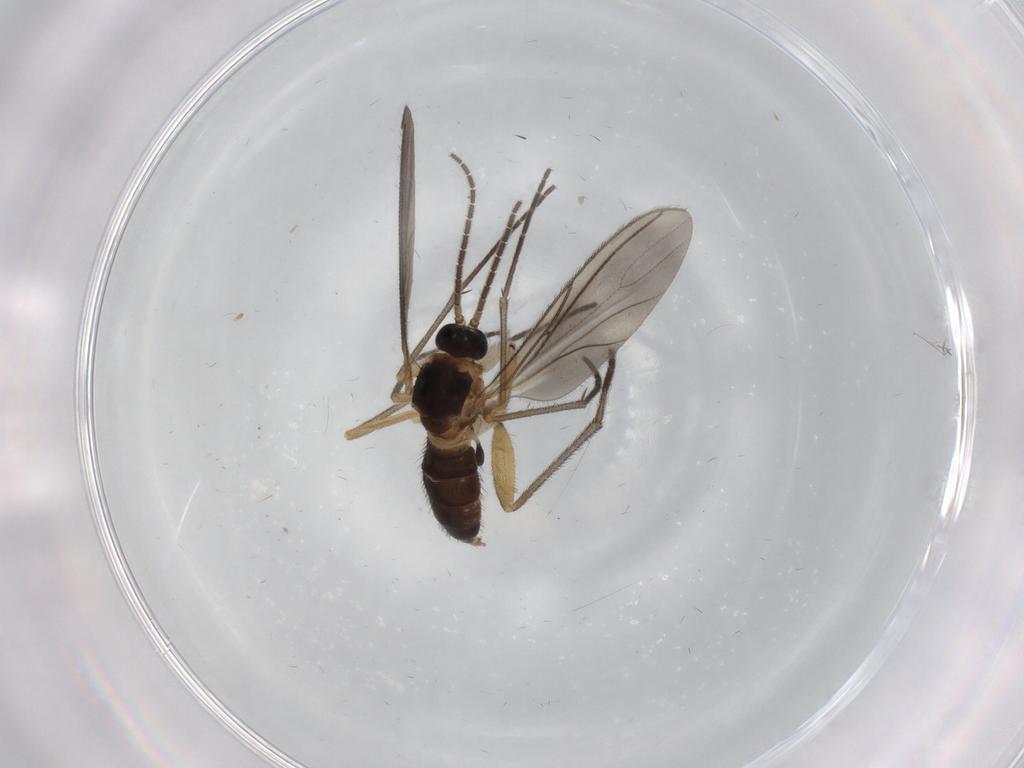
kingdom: Animalia
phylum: Arthropoda
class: Insecta
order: Diptera
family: Sciaridae
